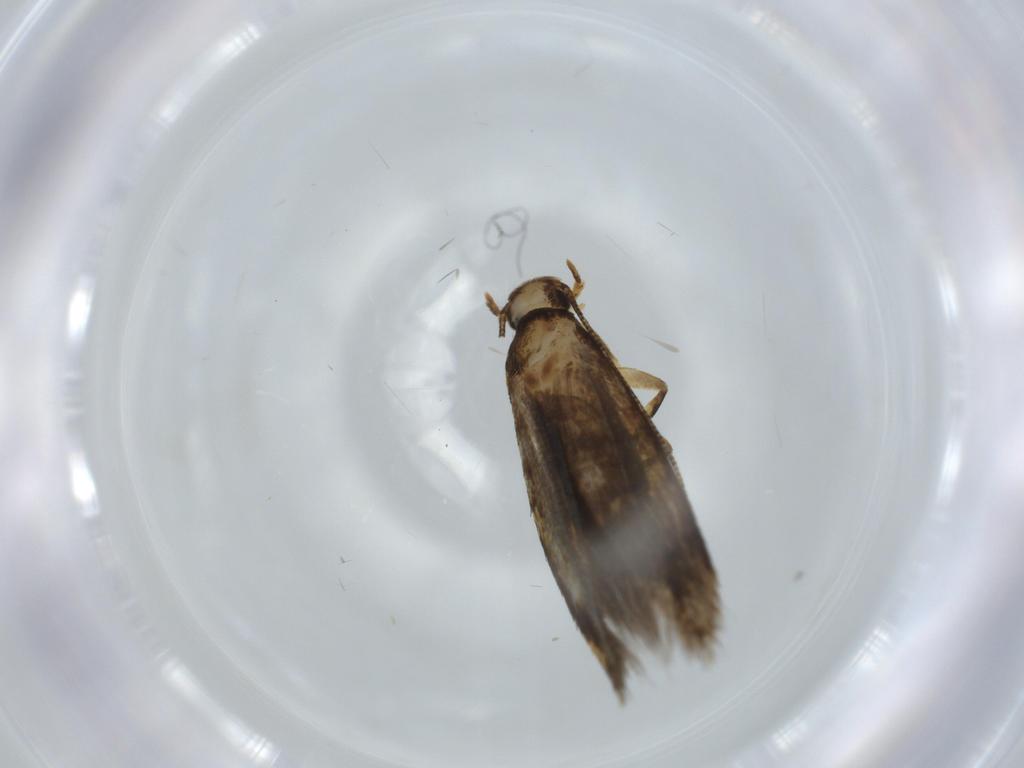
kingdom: Animalia
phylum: Arthropoda
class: Insecta
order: Lepidoptera
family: Tineidae
